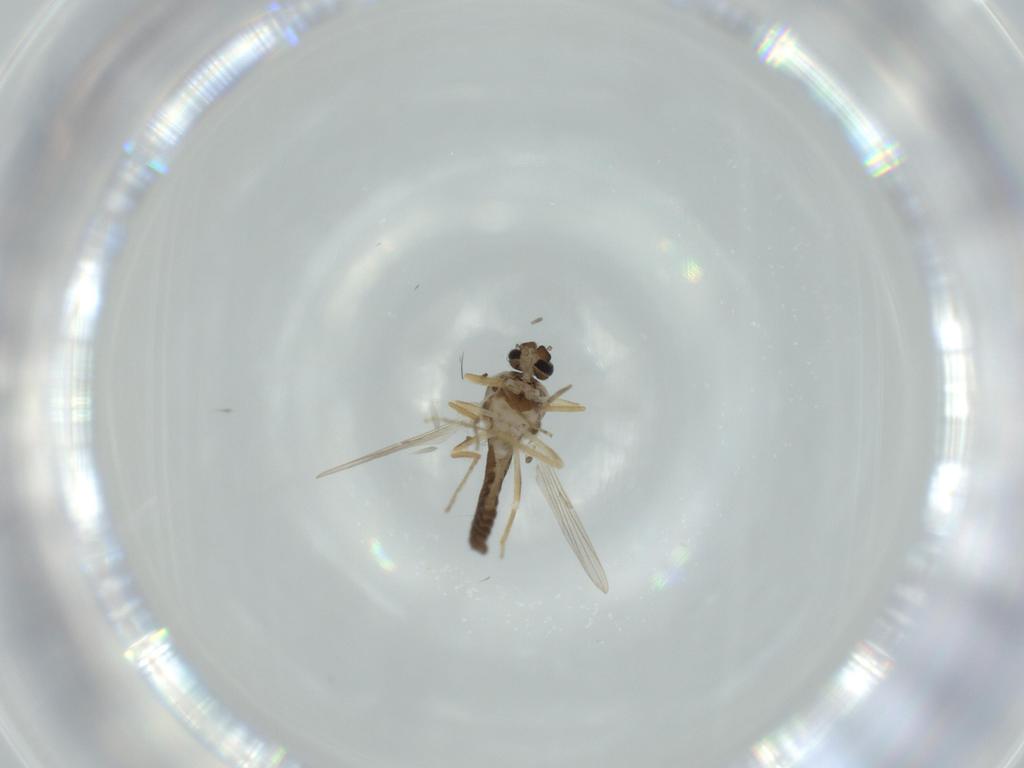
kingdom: Animalia
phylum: Arthropoda
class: Insecta
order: Diptera
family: Ceratopogonidae
